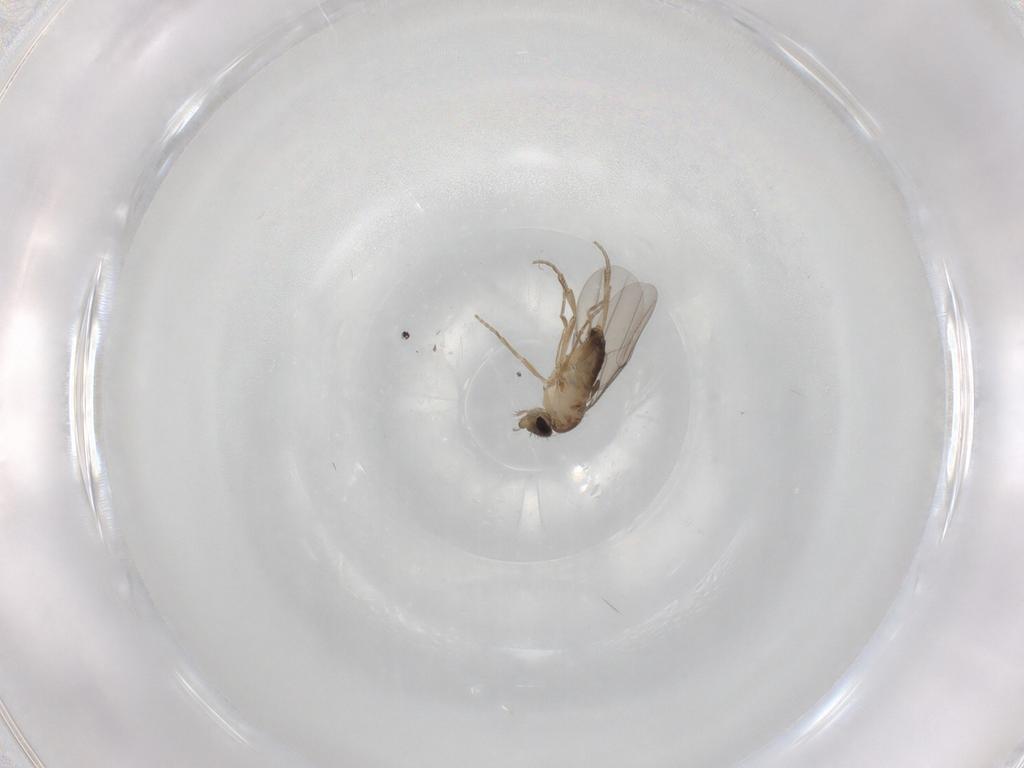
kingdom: Animalia
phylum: Arthropoda
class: Insecta
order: Diptera
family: Phoridae
